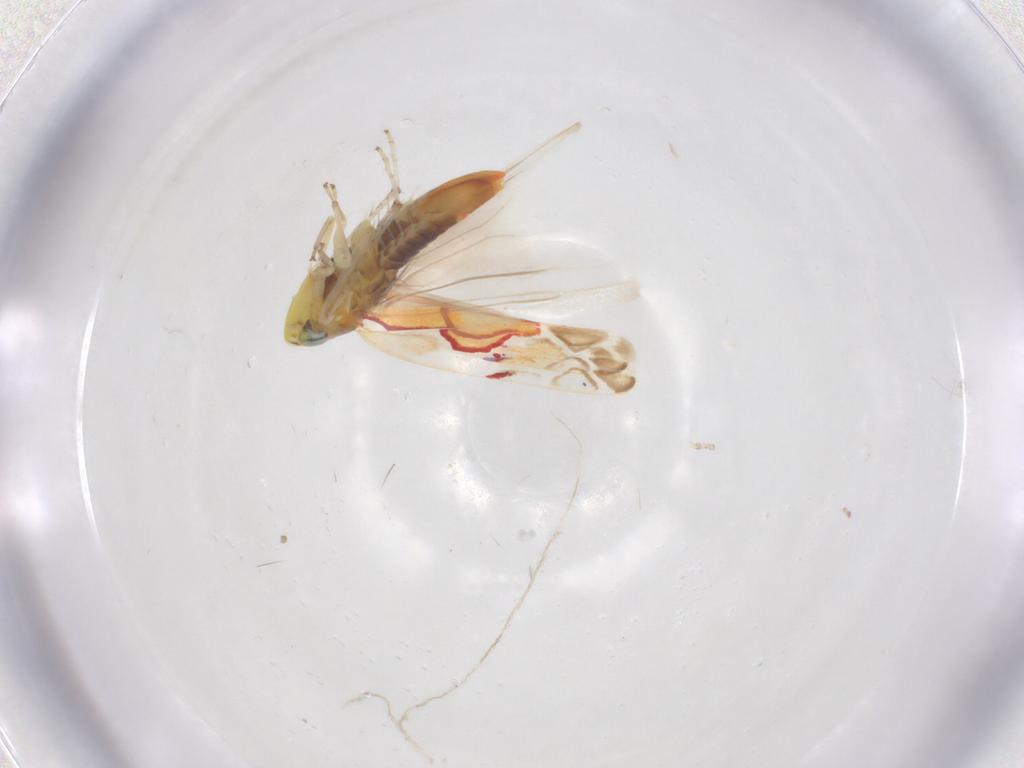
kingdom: Animalia
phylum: Arthropoda
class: Insecta
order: Hemiptera
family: Cicadellidae
